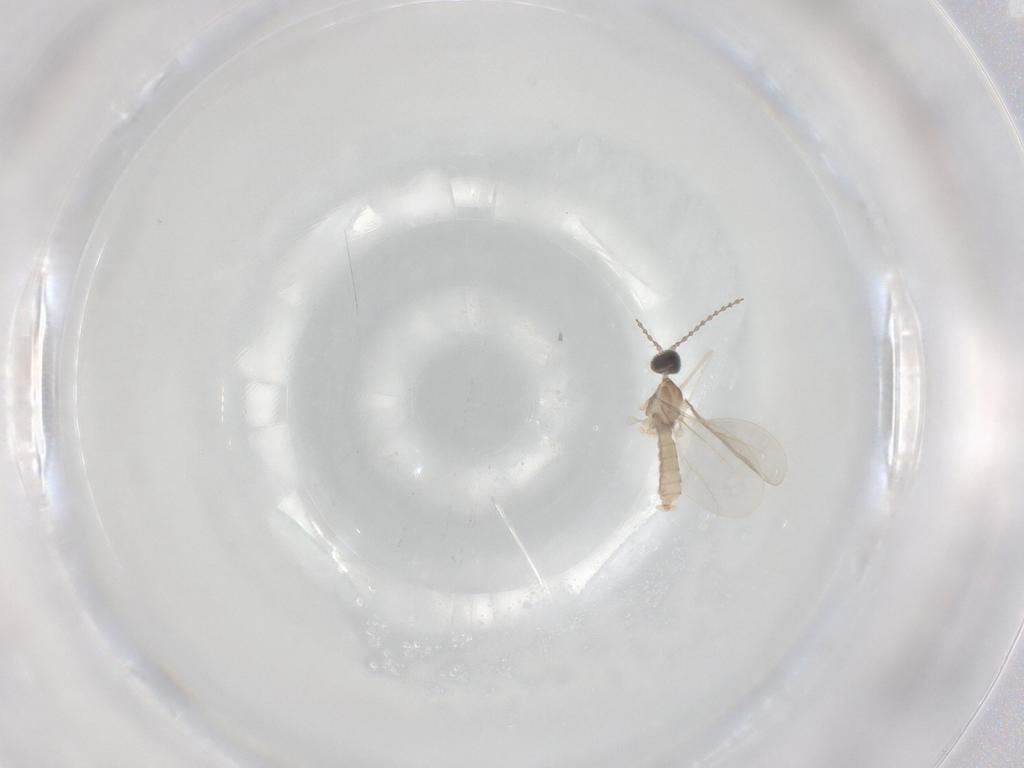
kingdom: Animalia
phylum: Arthropoda
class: Insecta
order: Diptera
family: Cecidomyiidae
